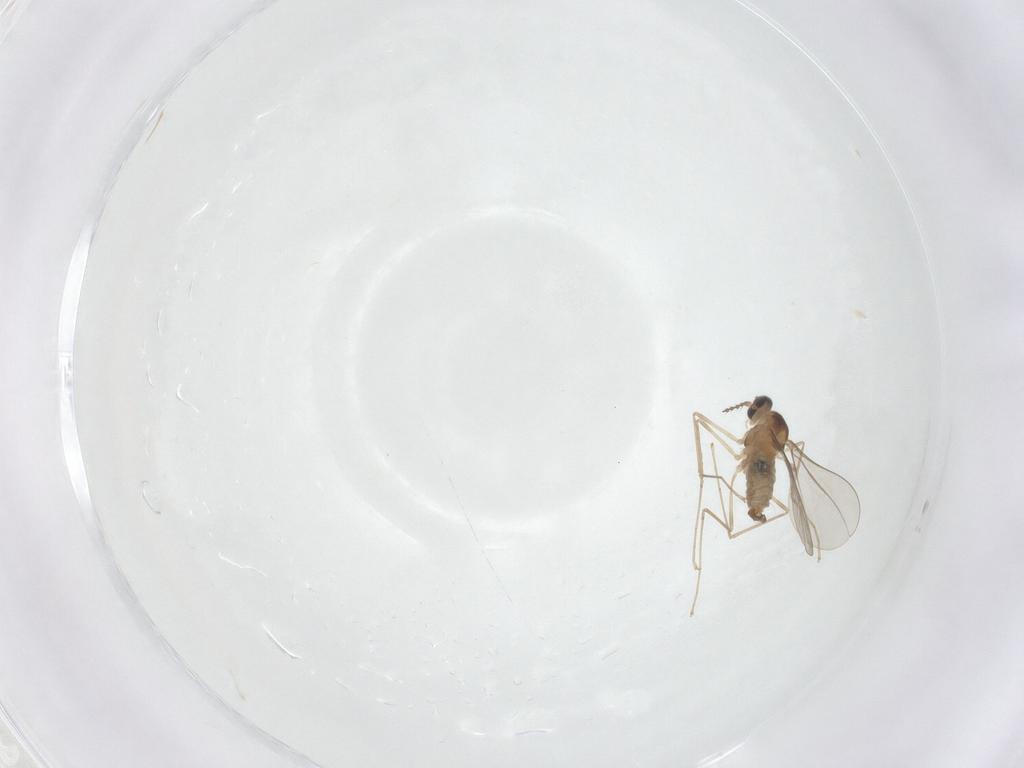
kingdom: Animalia
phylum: Arthropoda
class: Insecta
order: Diptera
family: Cecidomyiidae
